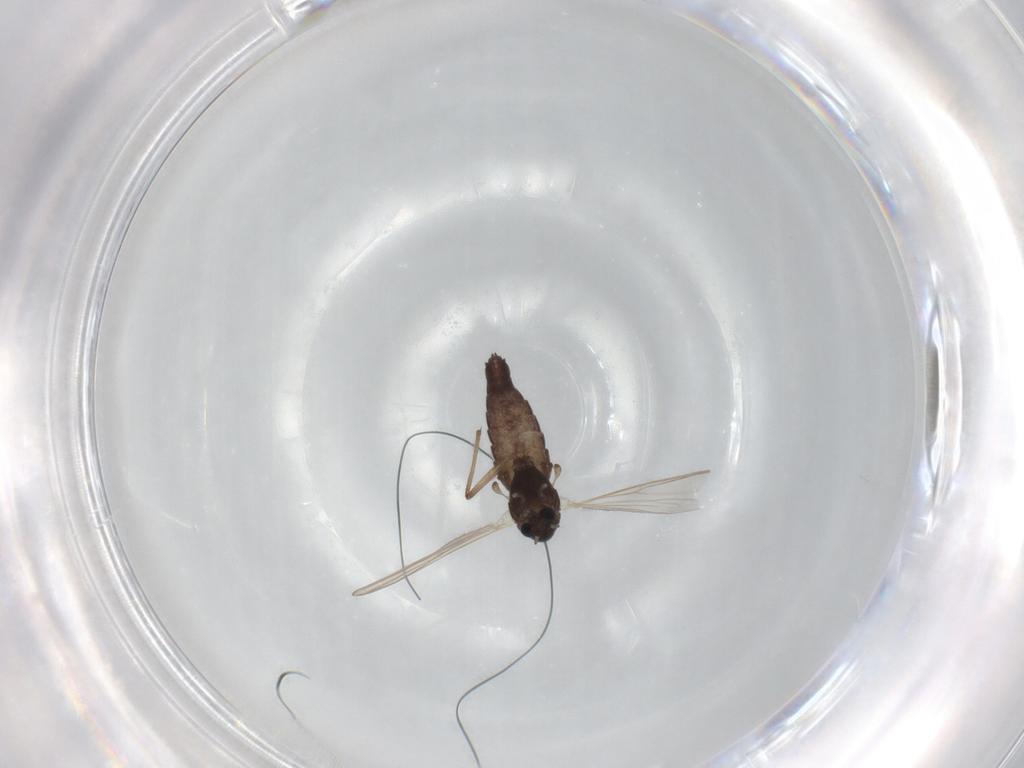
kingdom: Animalia
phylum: Arthropoda
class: Insecta
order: Diptera
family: Chironomidae
